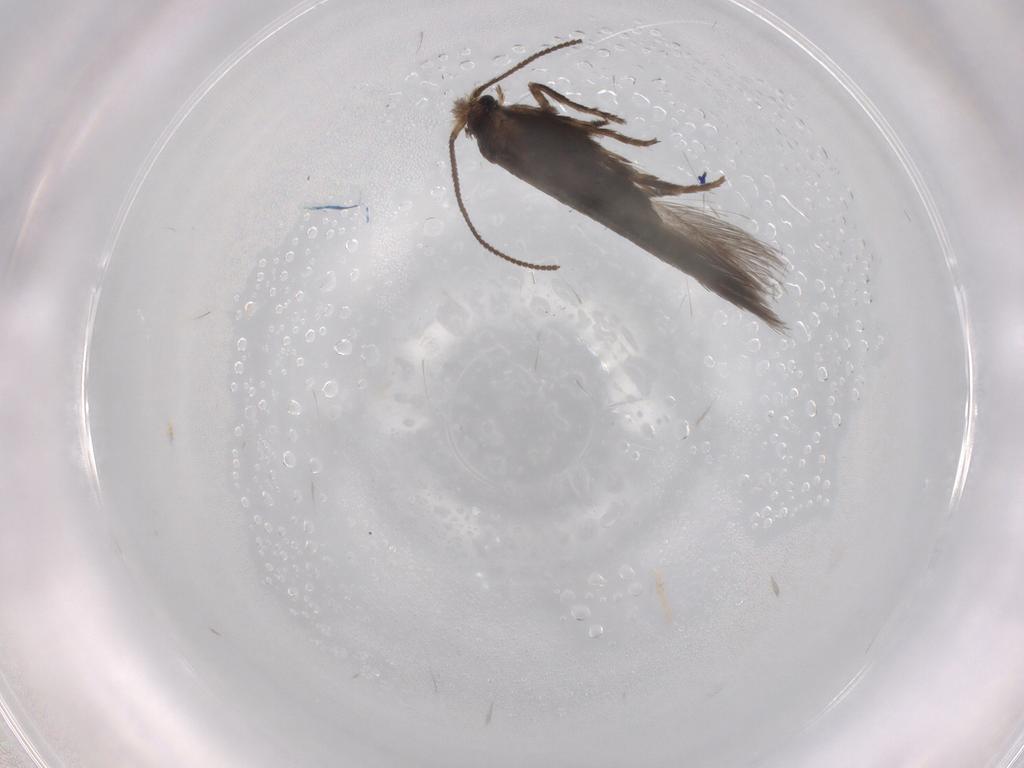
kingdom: Animalia
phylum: Arthropoda
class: Insecta
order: Lepidoptera
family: Nepticulidae
